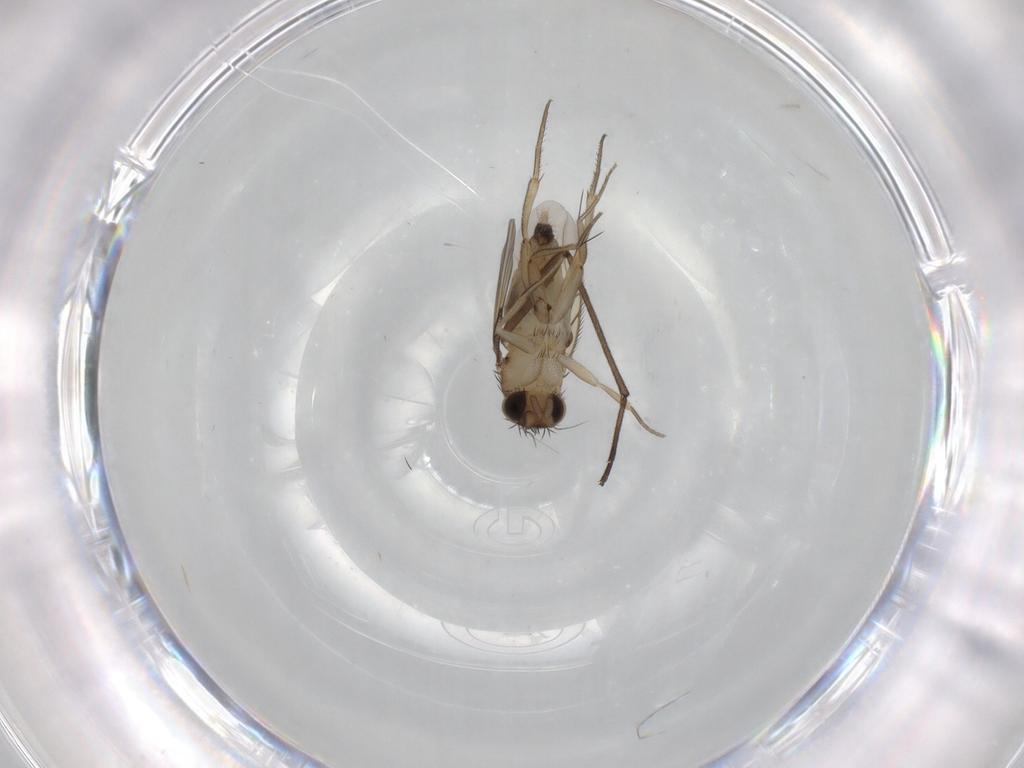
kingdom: Animalia
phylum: Arthropoda
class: Insecta
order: Diptera
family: Phoridae
